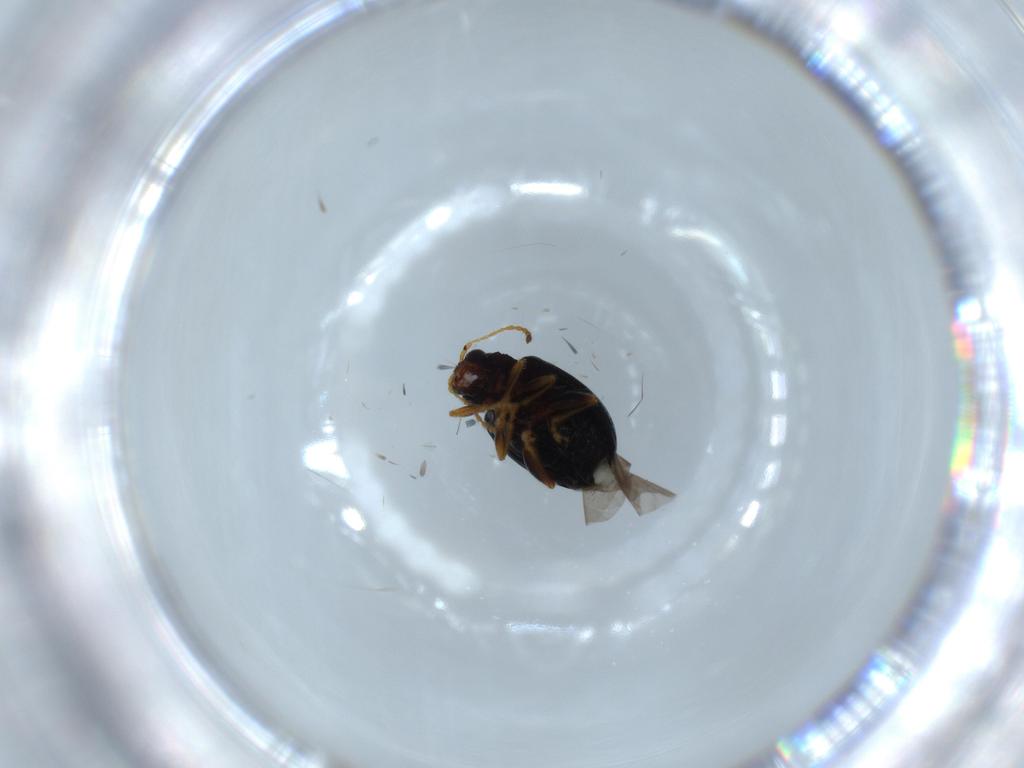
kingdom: Animalia
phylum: Arthropoda
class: Insecta
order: Coleoptera
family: Chrysomelidae
